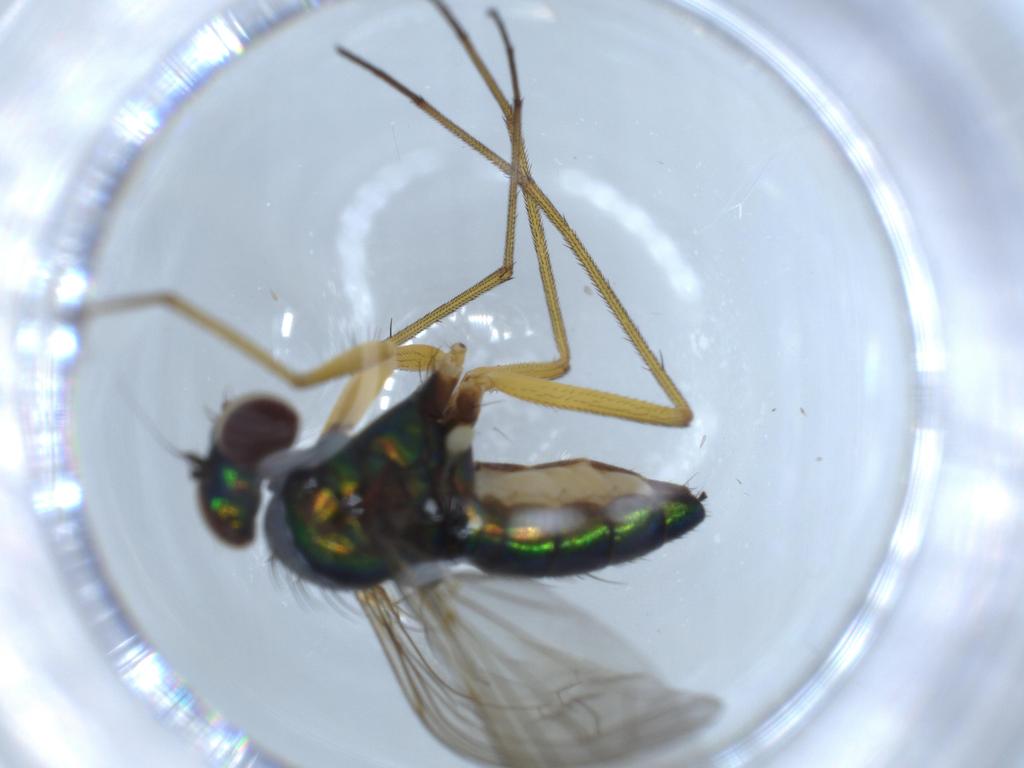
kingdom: Animalia
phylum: Arthropoda
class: Insecta
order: Diptera
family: Dolichopodidae
